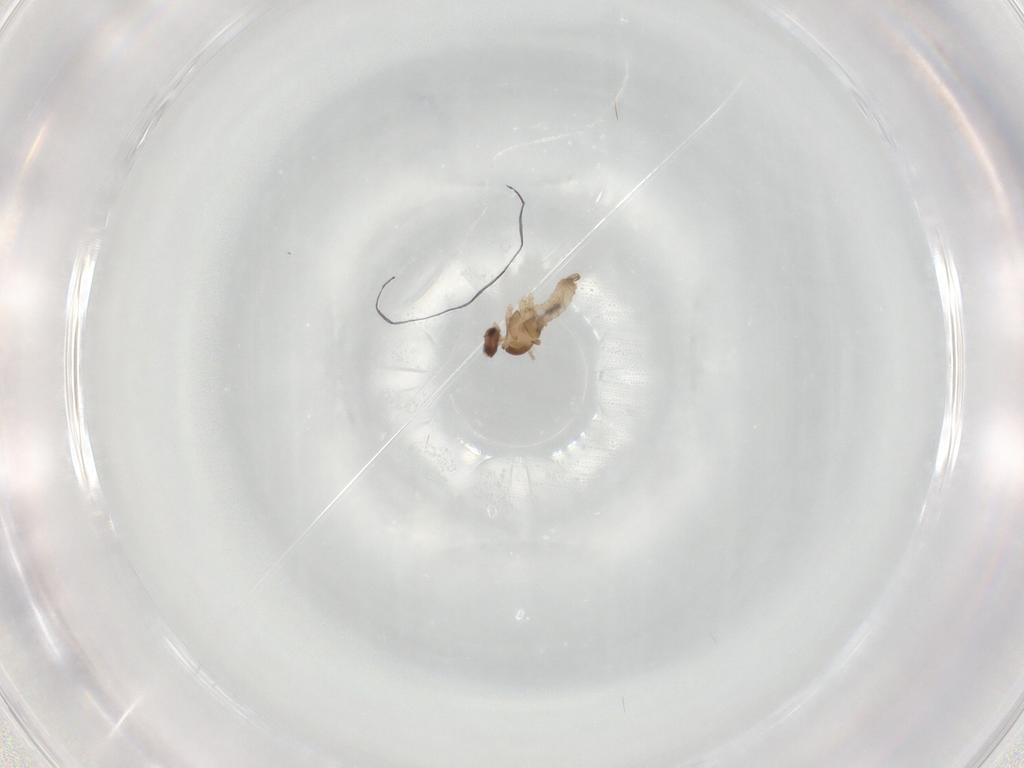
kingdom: Animalia
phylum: Arthropoda
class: Insecta
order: Diptera
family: Cecidomyiidae
